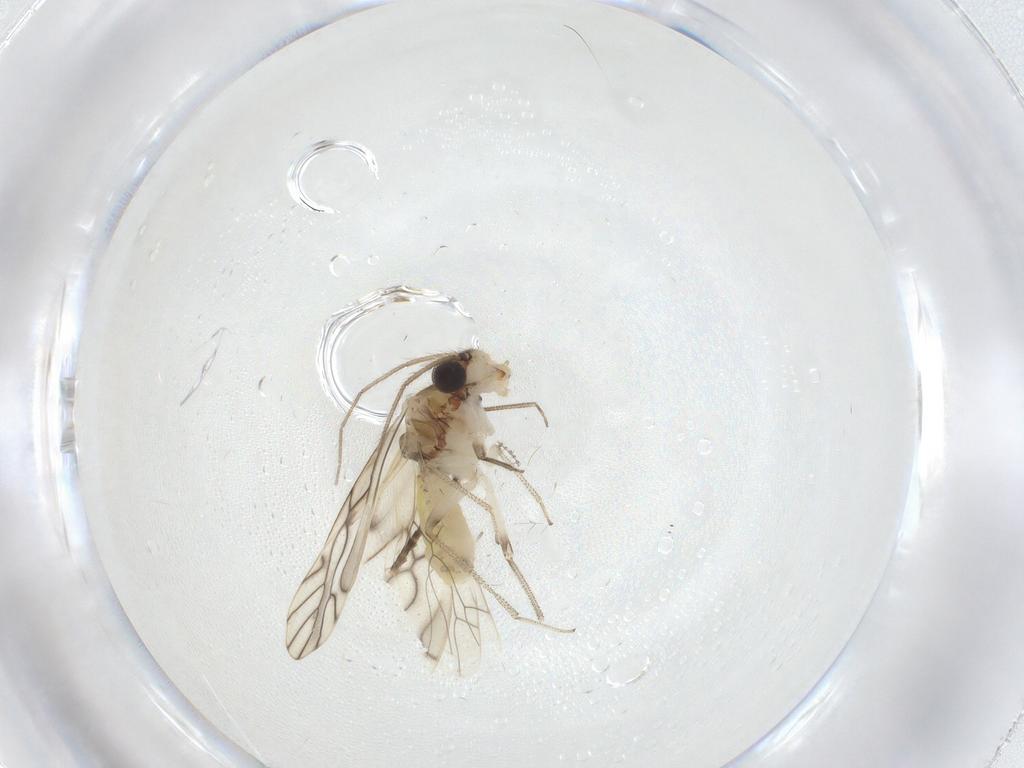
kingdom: Animalia
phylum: Arthropoda
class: Insecta
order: Psocodea
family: Caeciliusidae
